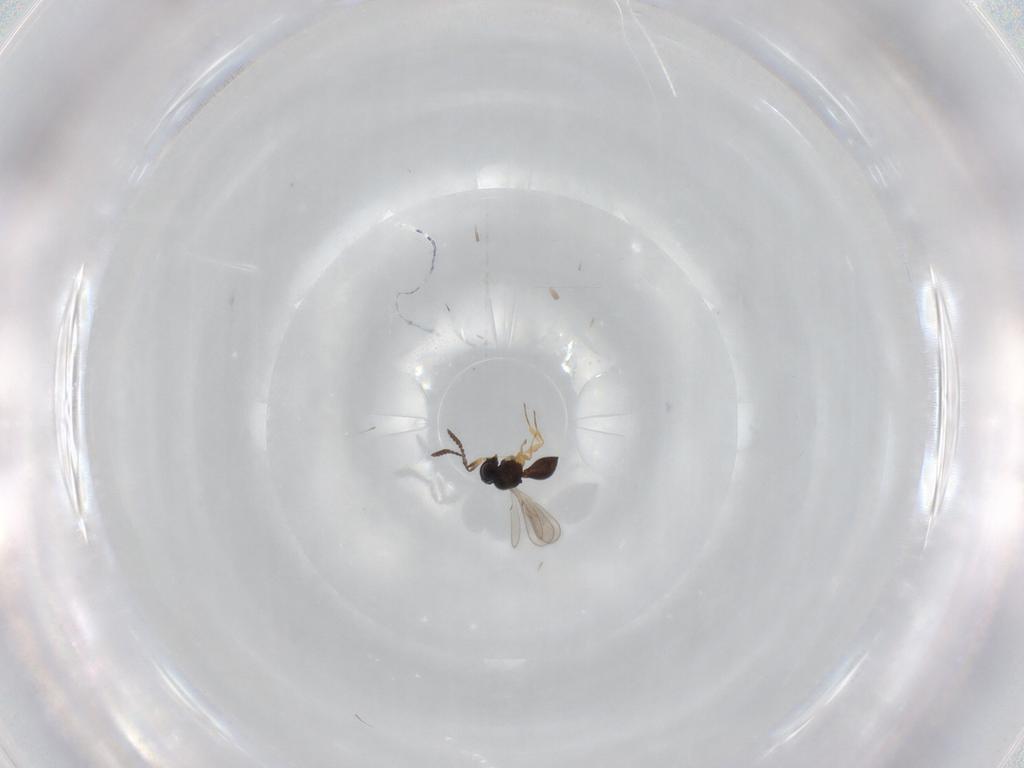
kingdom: Animalia
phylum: Arthropoda
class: Insecta
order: Hymenoptera
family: Scelionidae
